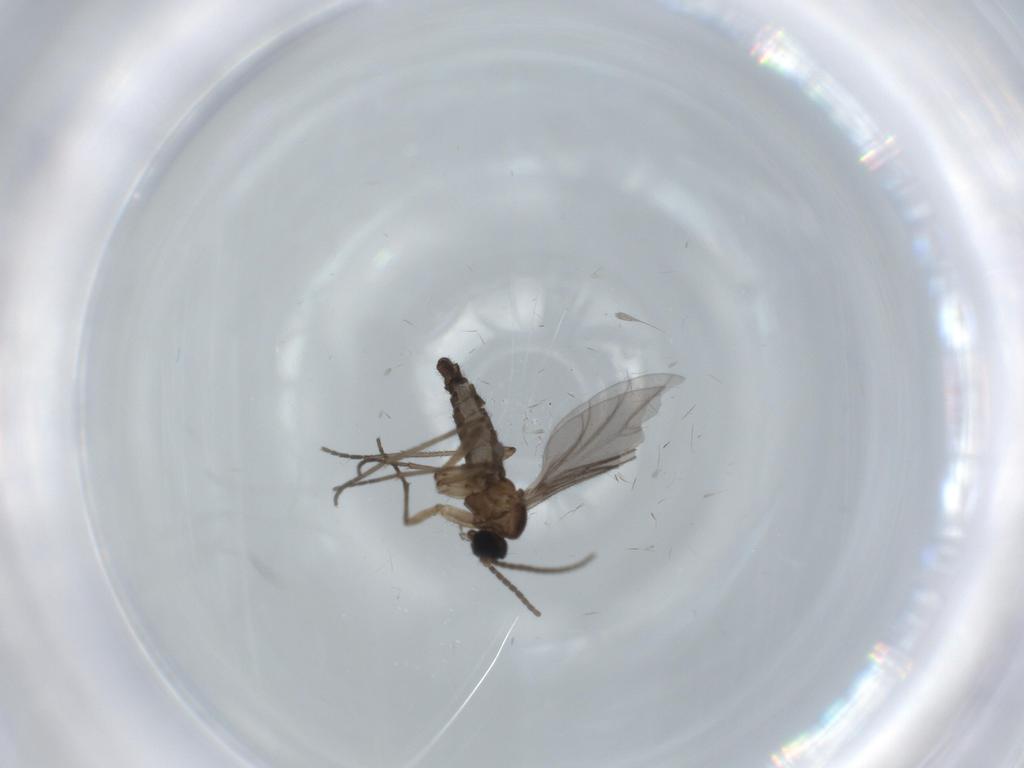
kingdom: Animalia
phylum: Arthropoda
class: Insecta
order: Diptera
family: Sciaridae
